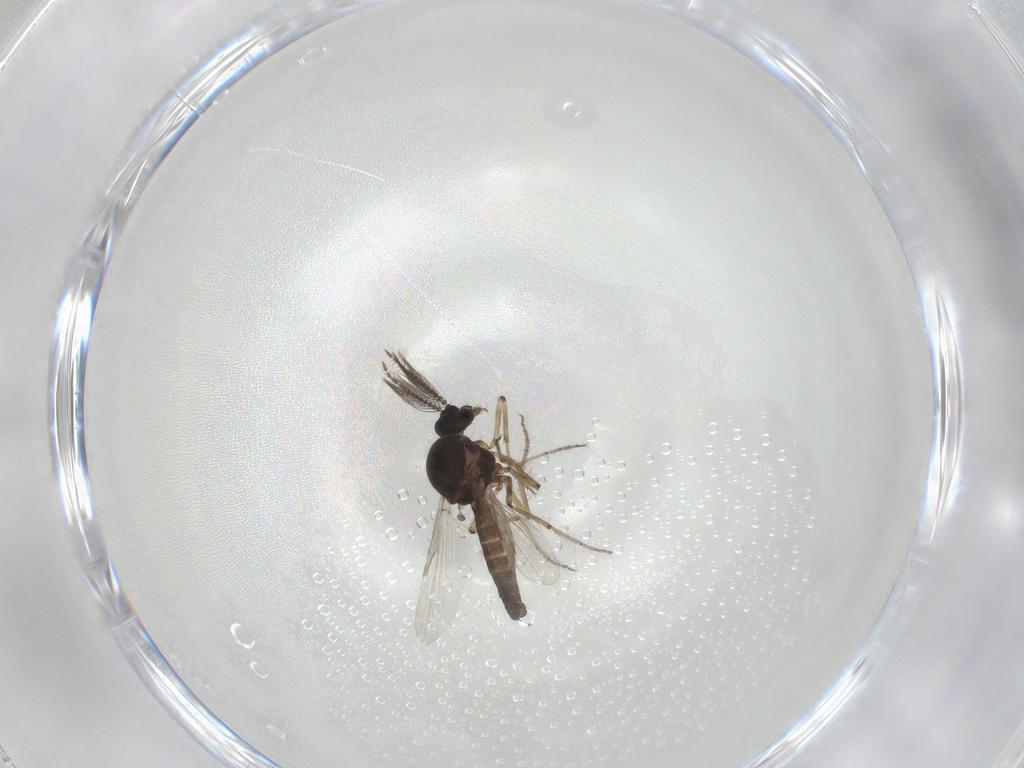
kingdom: Animalia
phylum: Arthropoda
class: Insecta
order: Diptera
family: Ceratopogonidae
